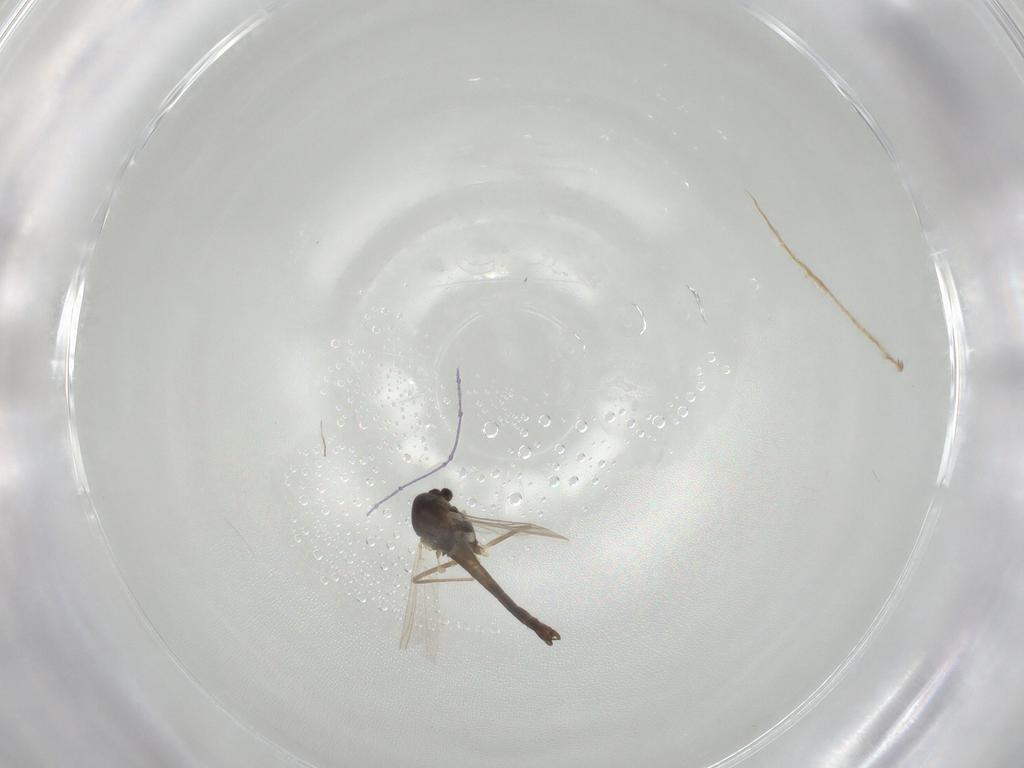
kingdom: Animalia
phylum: Arthropoda
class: Insecta
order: Diptera
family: Chironomidae
